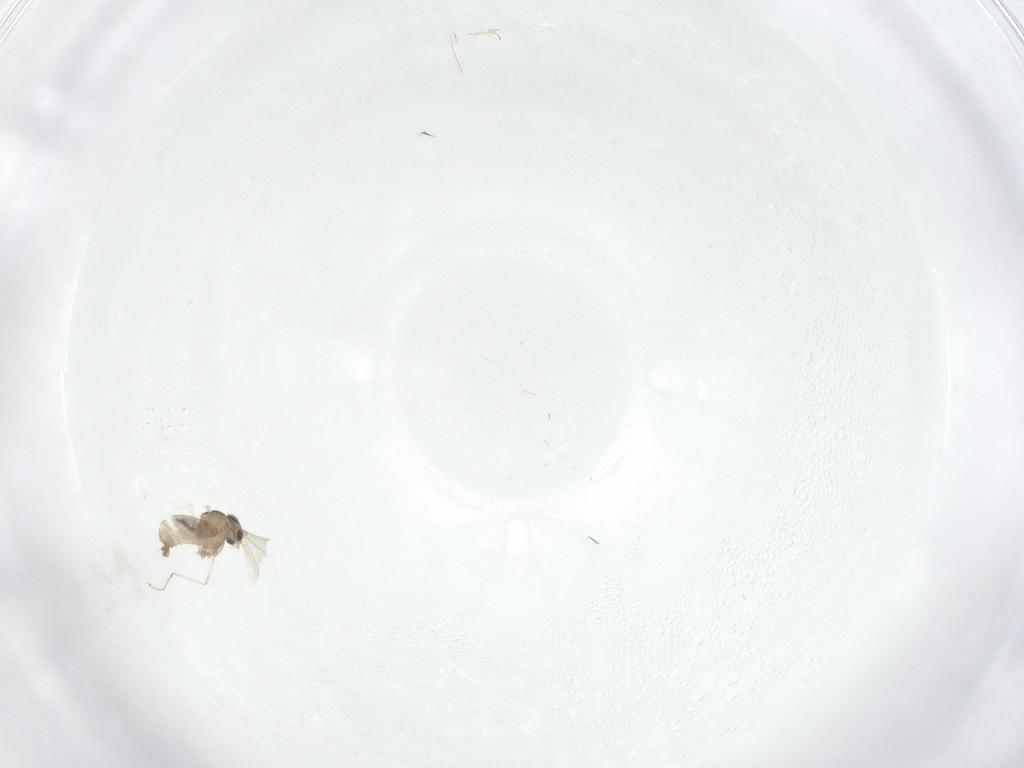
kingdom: Animalia
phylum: Arthropoda
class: Insecta
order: Diptera
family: Cecidomyiidae
